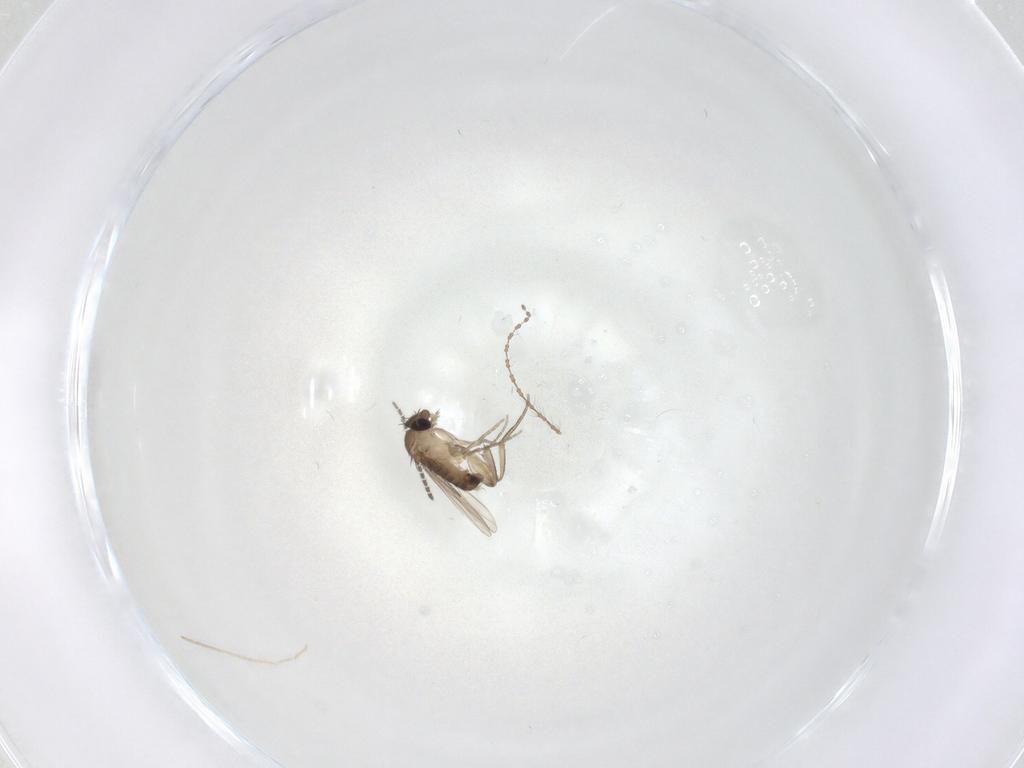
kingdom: Animalia
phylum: Arthropoda
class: Insecta
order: Diptera
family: Phoridae
